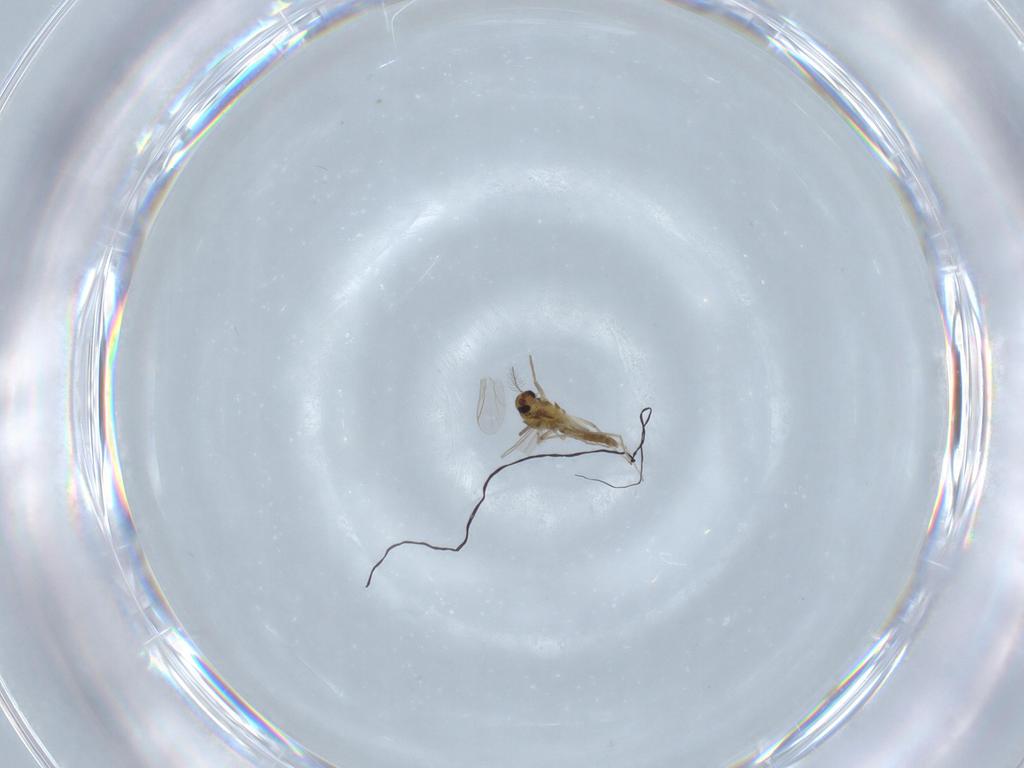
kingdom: Animalia
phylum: Arthropoda
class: Insecta
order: Diptera
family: Chironomidae
